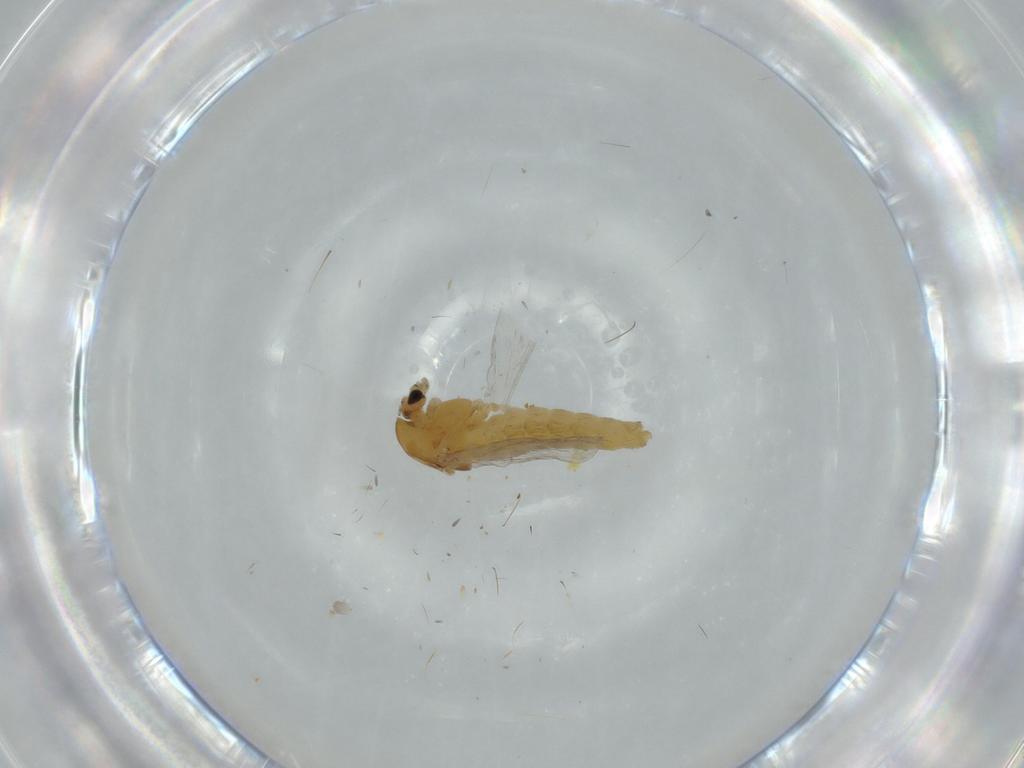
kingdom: Animalia
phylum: Arthropoda
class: Insecta
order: Diptera
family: Chironomidae
